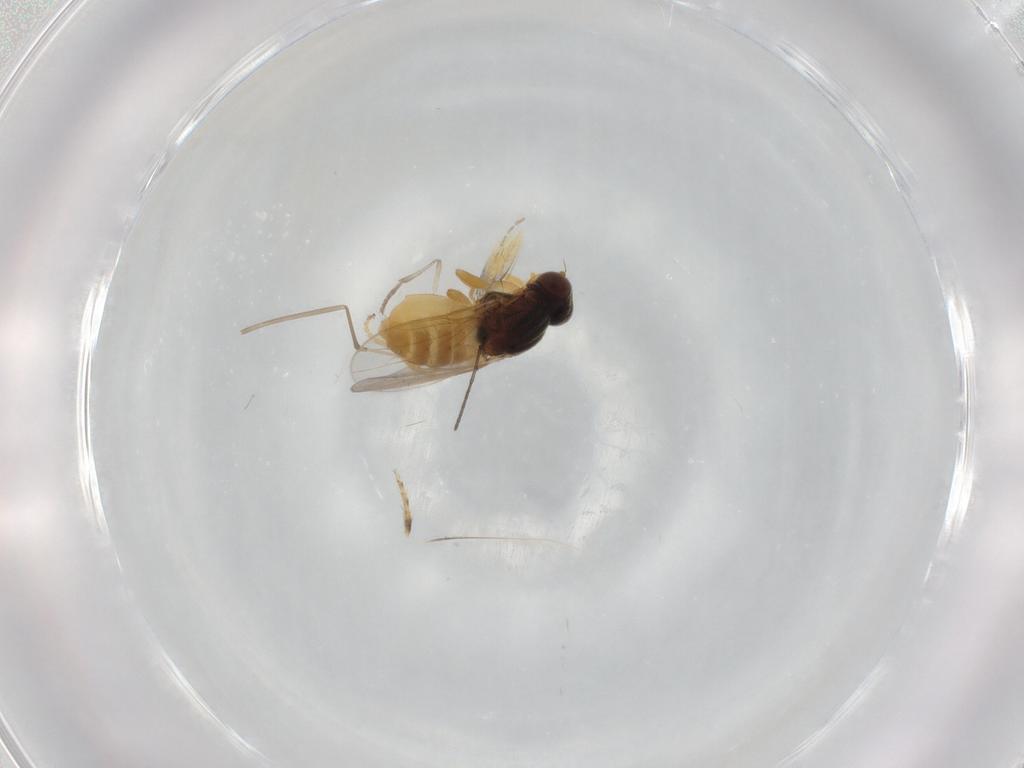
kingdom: Animalia
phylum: Arthropoda
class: Insecta
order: Diptera
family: Chloropidae
